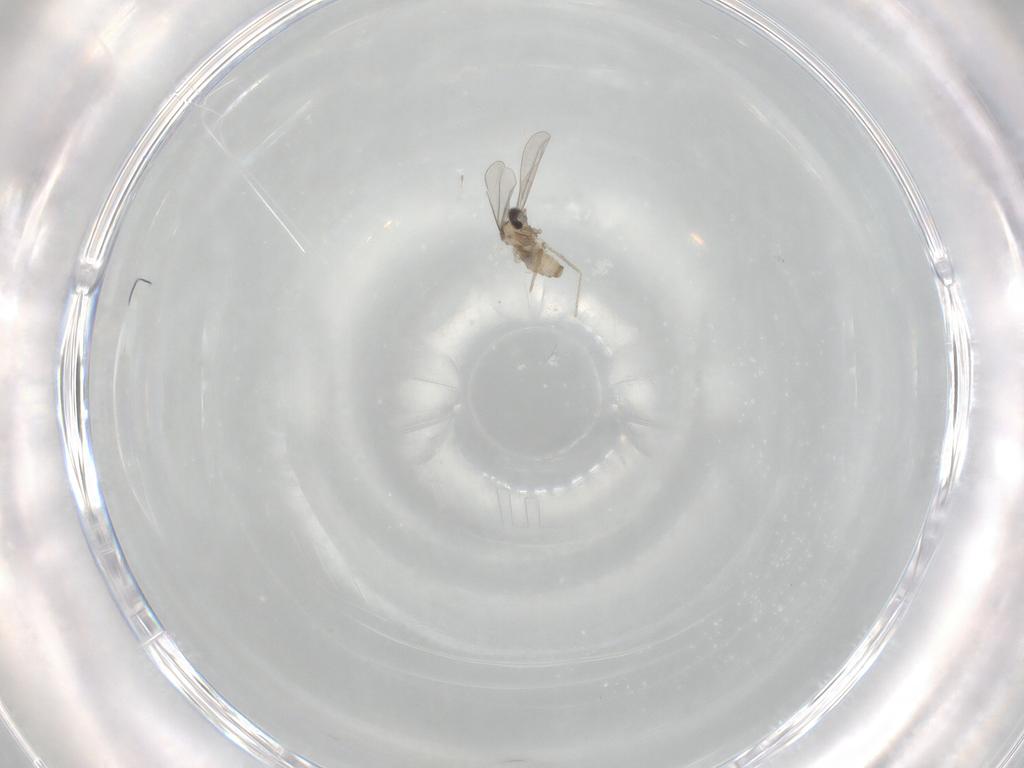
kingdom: Animalia
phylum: Arthropoda
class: Insecta
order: Diptera
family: Cecidomyiidae
